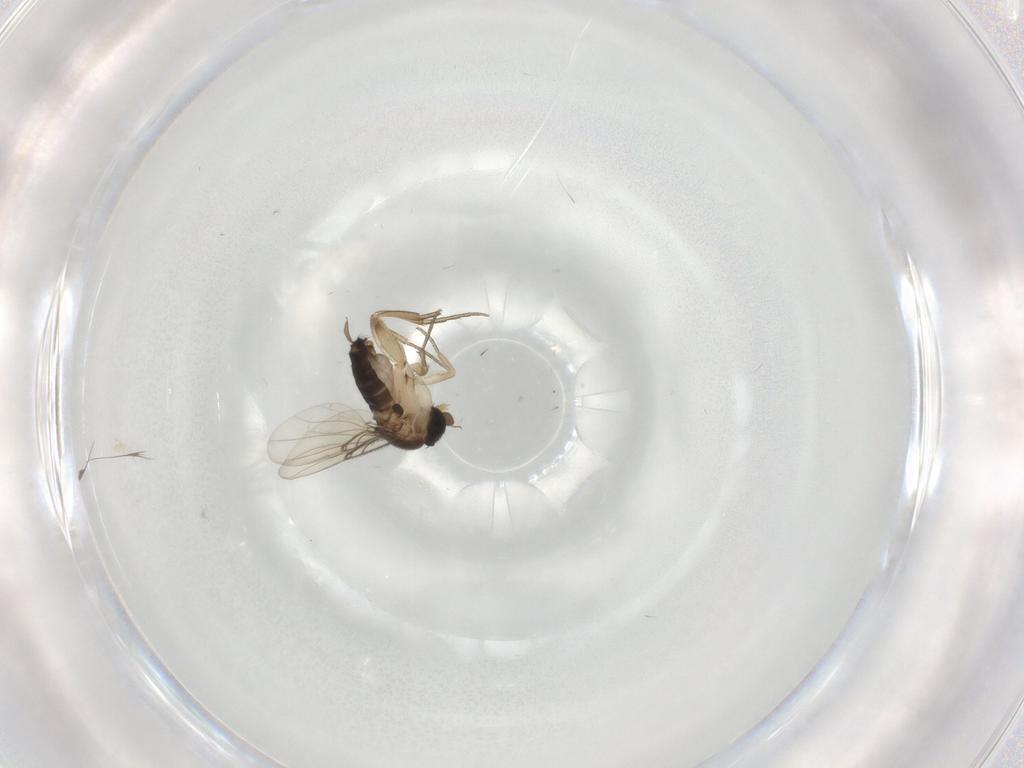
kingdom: Animalia
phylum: Arthropoda
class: Insecta
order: Diptera
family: Phoridae
